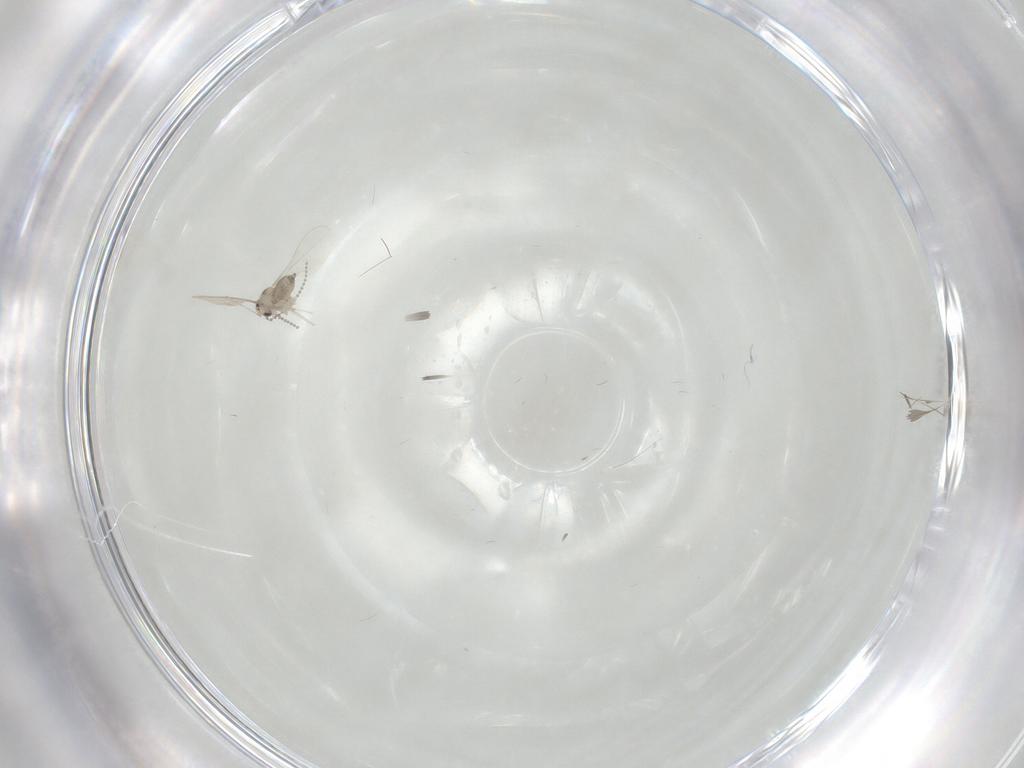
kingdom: Animalia
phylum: Arthropoda
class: Insecta
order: Diptera
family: Cecidomyiidae
